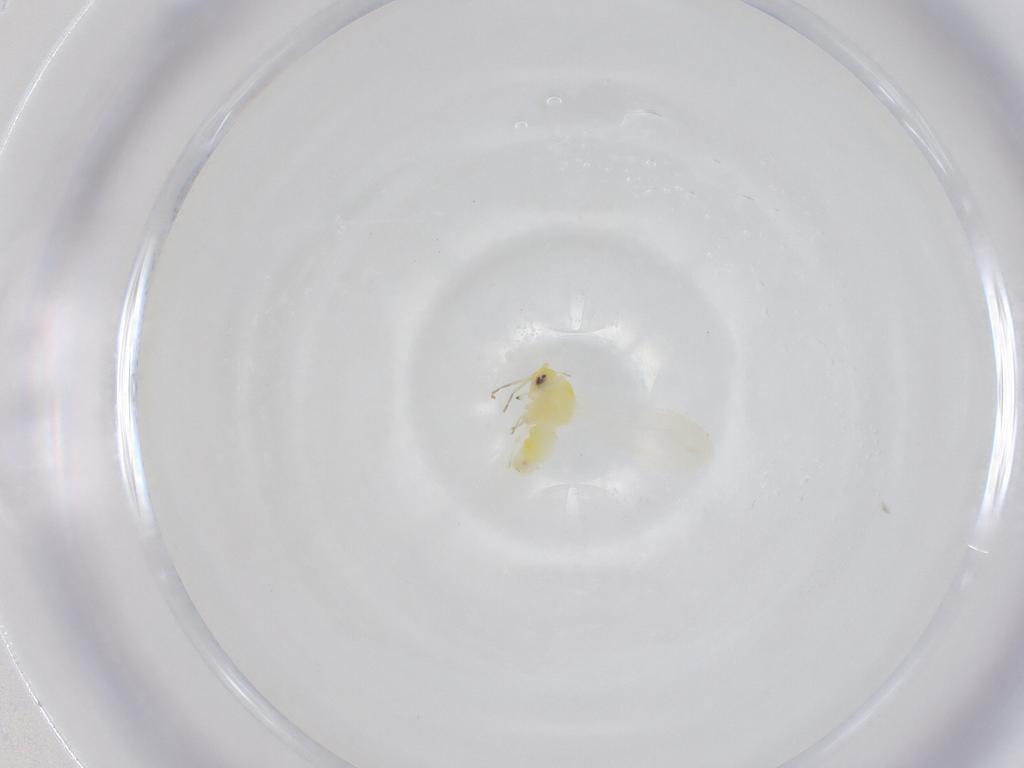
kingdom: Animalia
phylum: Arthropoda
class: Insecta
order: Hemiptera
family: Aleyrodidae
